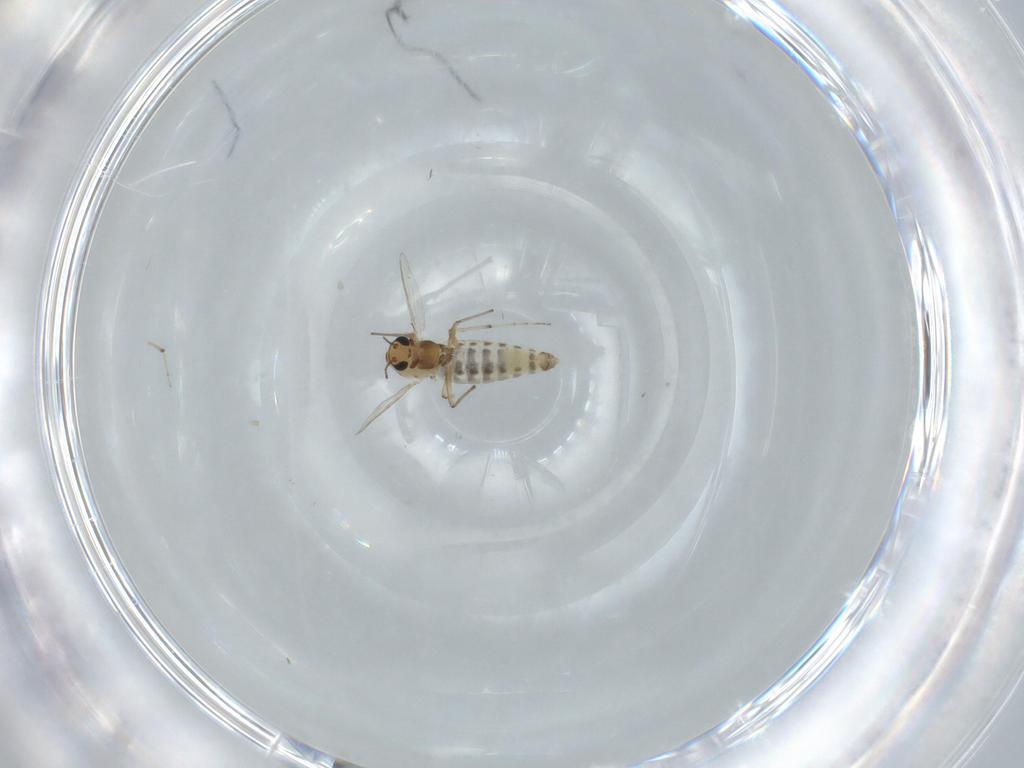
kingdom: Animalia
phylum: Arthropoda
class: Insecta
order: Diptera
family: Chironomidae
